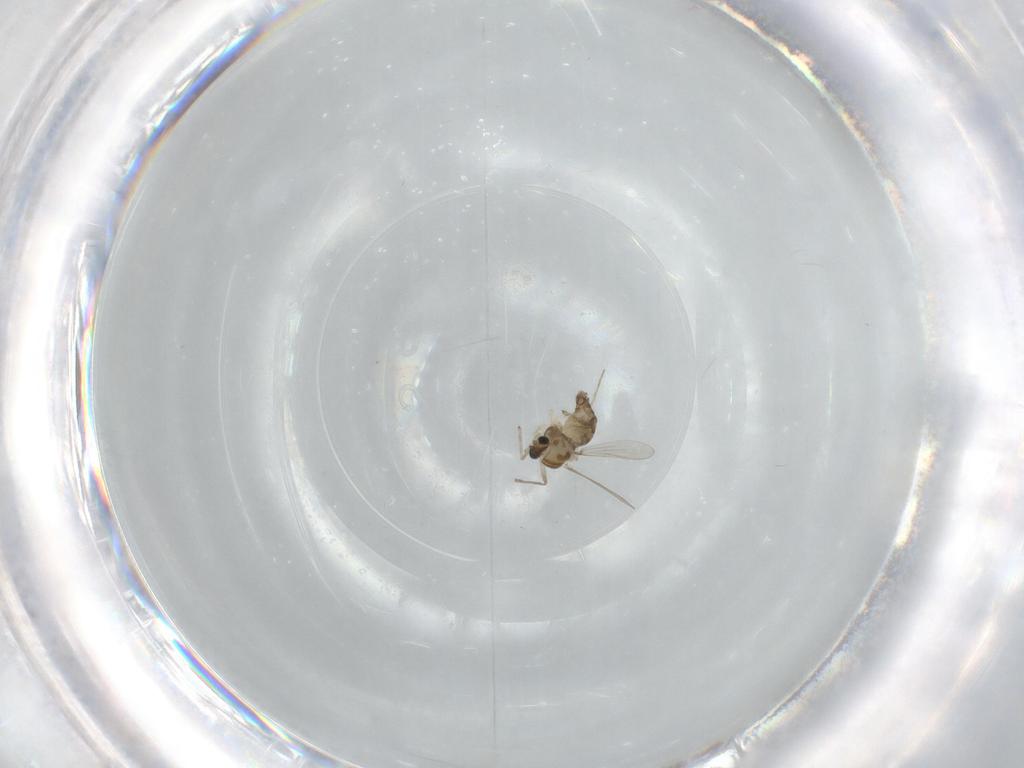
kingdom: Animalia
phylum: Arthropoda
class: Insecta
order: Diptera
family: Chironomidae
